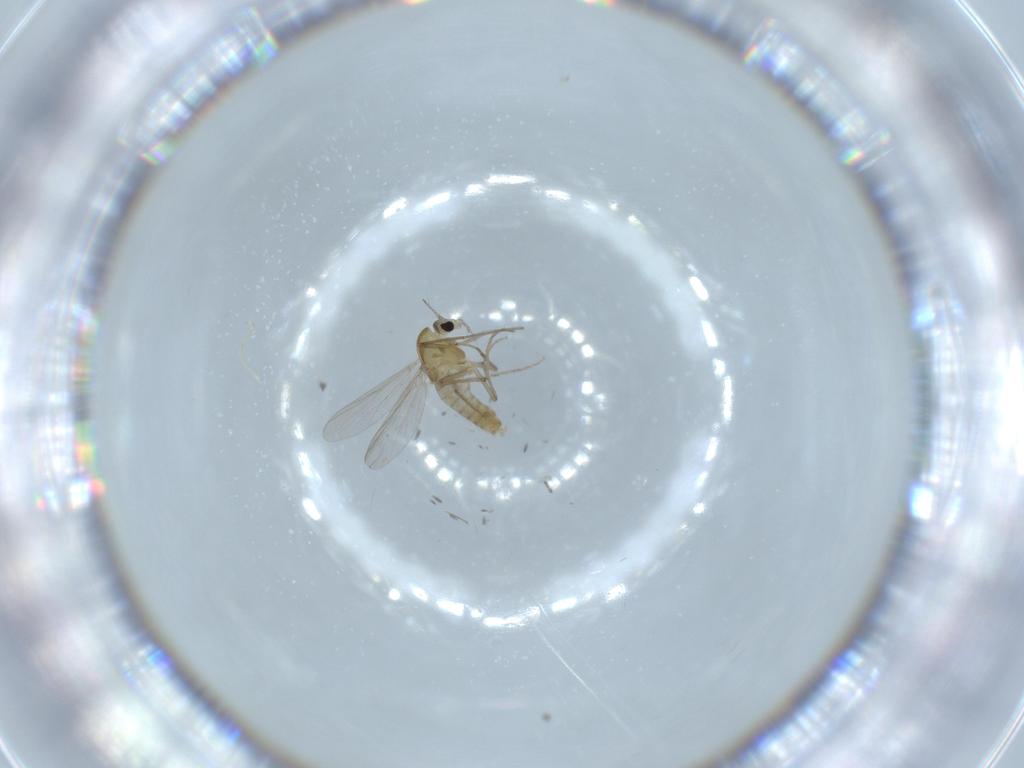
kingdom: Animalia
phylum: Arthropoda
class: Insecta
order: Diptera
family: Chironomidae
